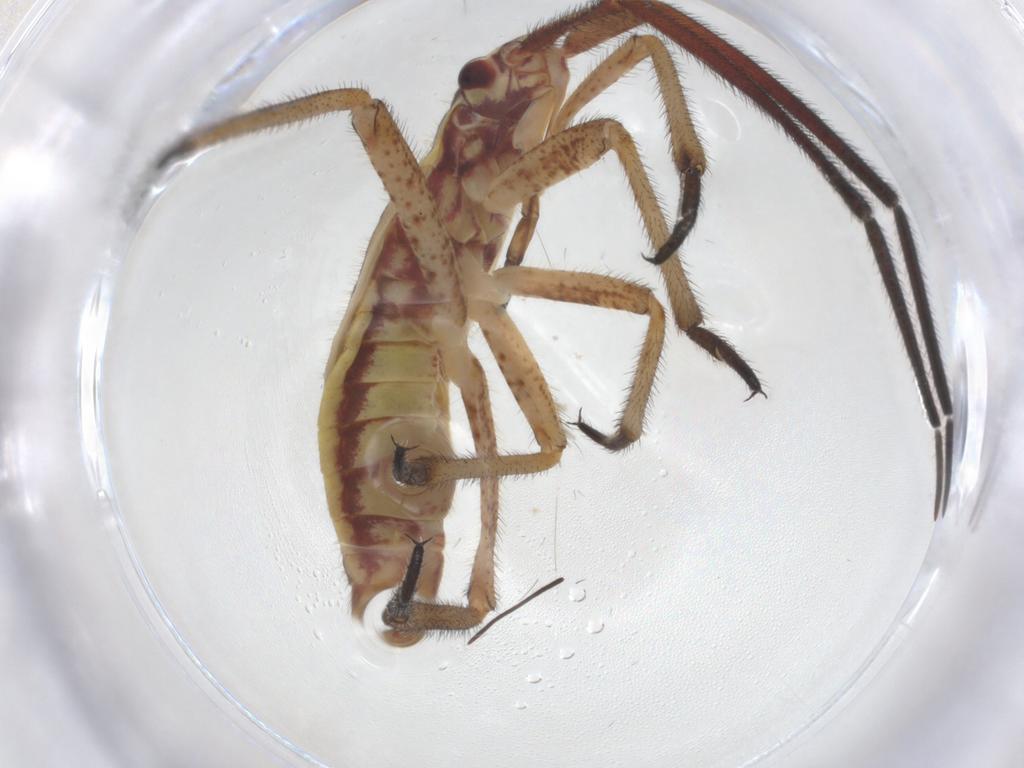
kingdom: Animalia
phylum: Arthropoda
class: Insecta
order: Hemiptera
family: Miridae
